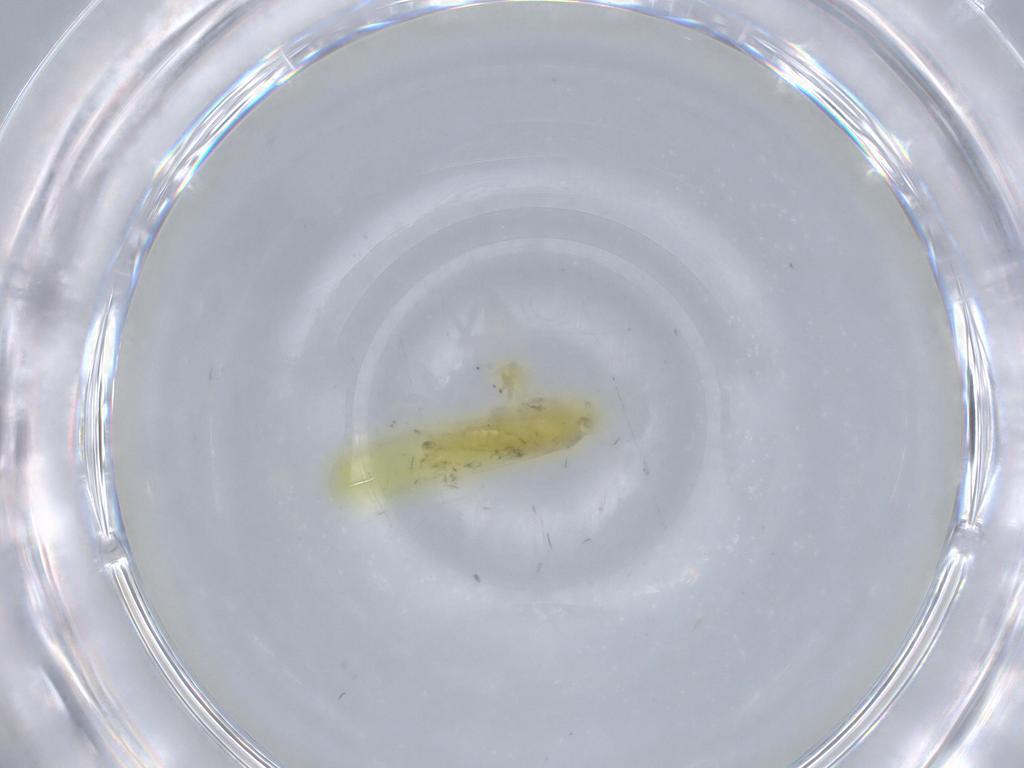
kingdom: Animalia
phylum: Arthropoda
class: Insecta
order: Hemiptera
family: Cicadellidae
